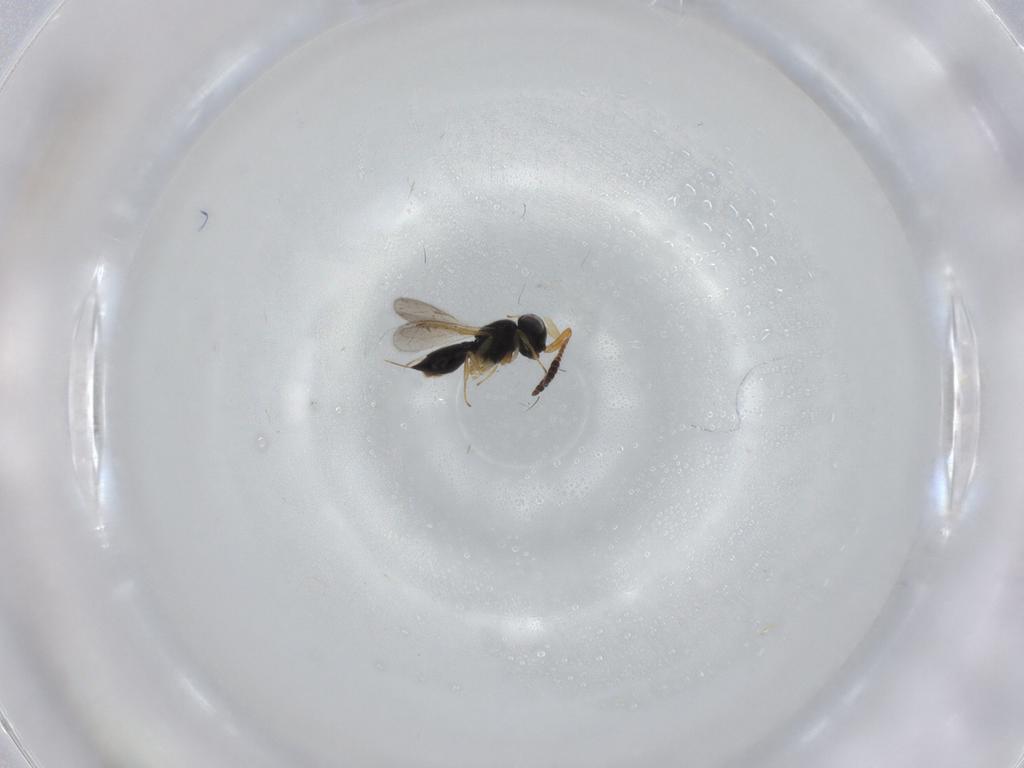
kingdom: Animalia
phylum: Arthropoda
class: Insecta
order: Hymenoptera
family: Scelionidae
